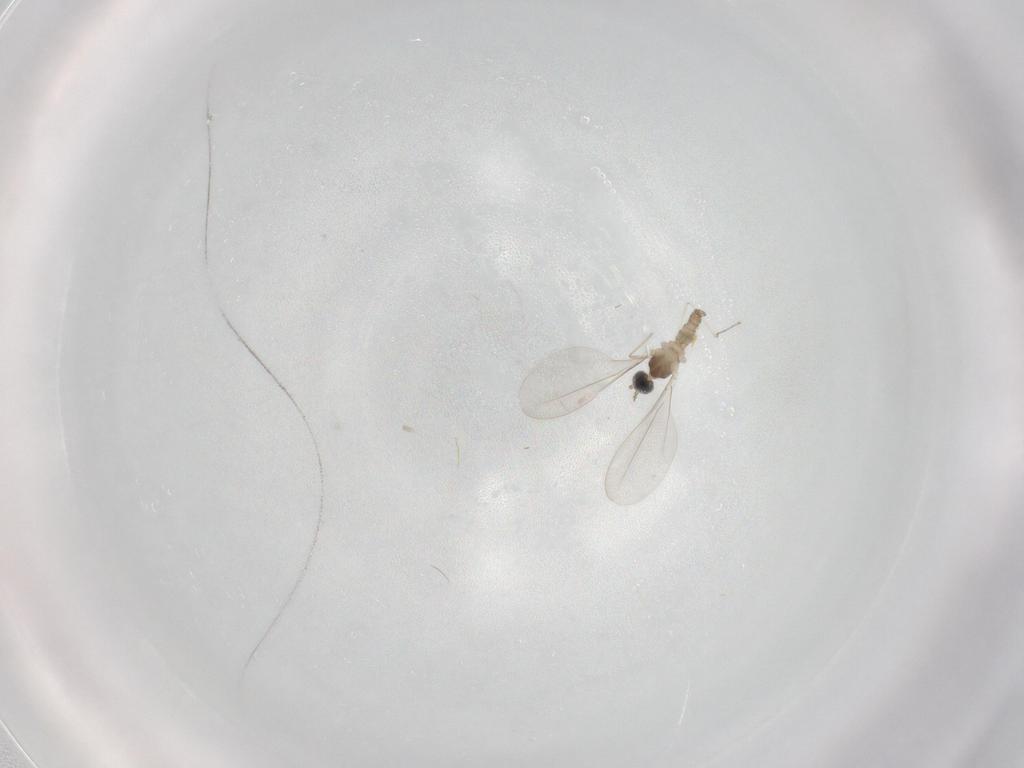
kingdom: Animalia
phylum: Arthropoda
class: Insecta
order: Diptera
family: Cecidomyiidae
